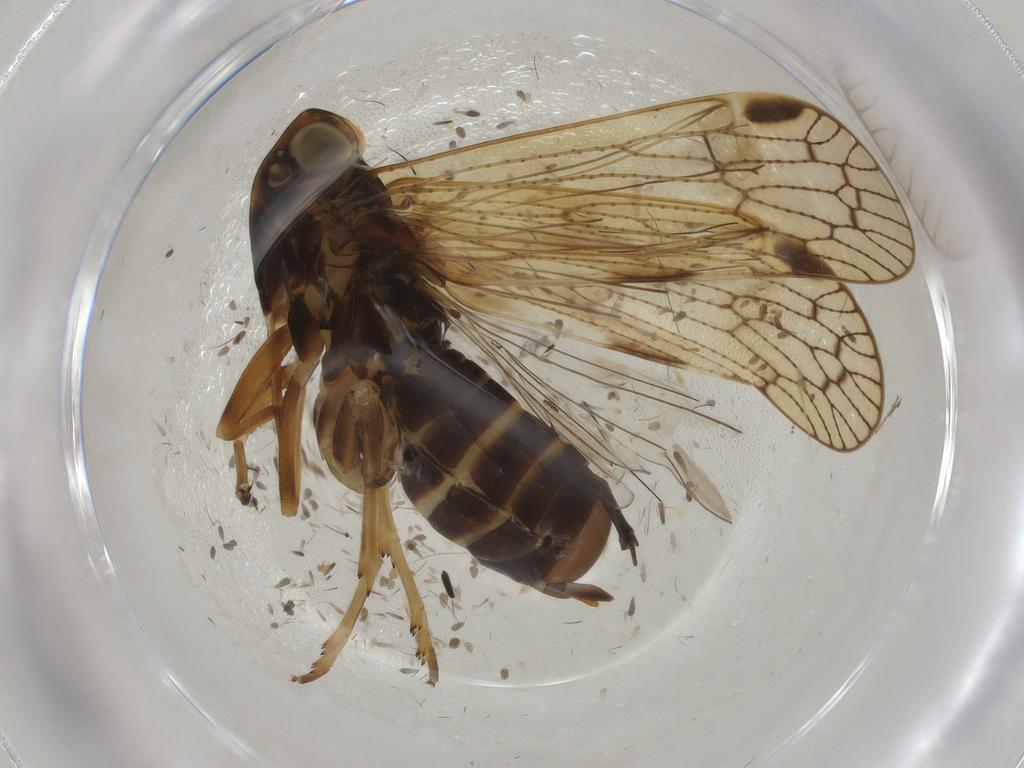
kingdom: Animalia
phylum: Arthropoda
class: Insecta
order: Hemiptera
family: Cixiidae
